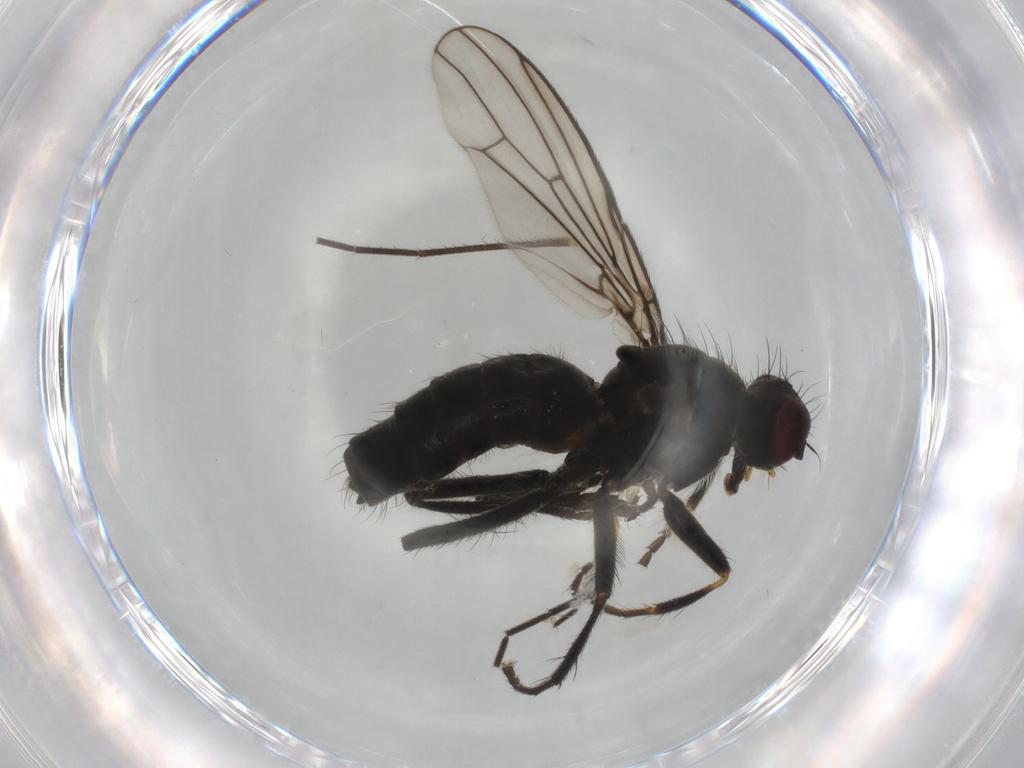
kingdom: Animalia
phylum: Arthropoda
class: Insecta
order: Diptera
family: Scathophagidae
